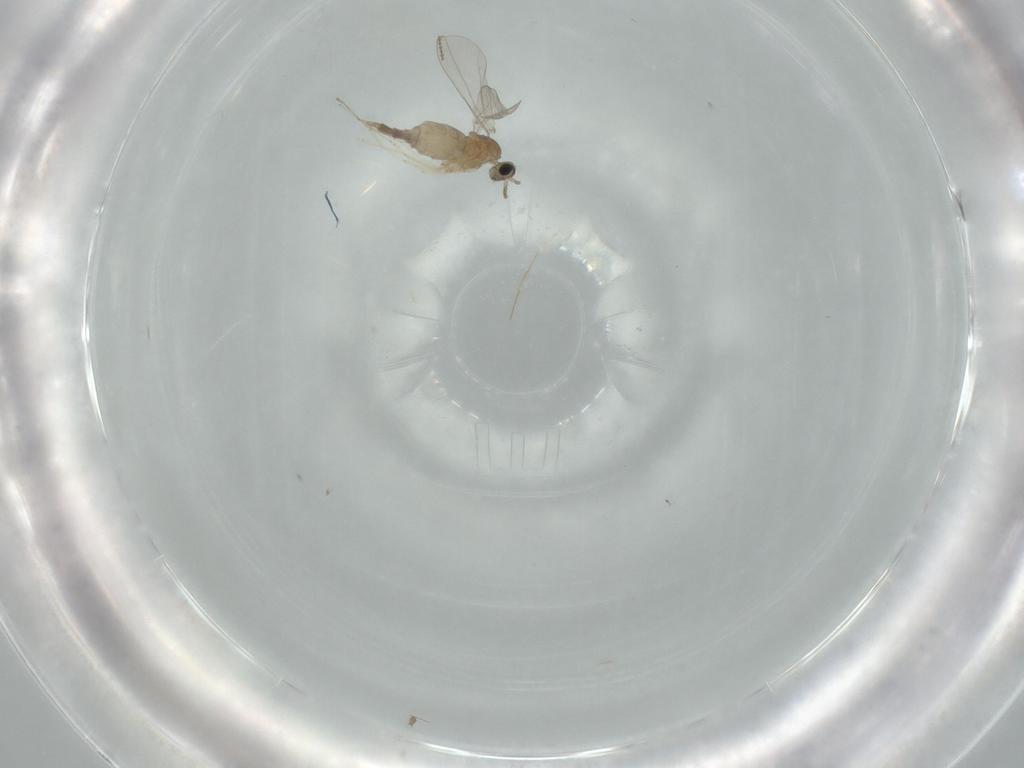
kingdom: Animalia
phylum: Arthropoda
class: Insecta
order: Diptera
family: Cecidomyiidae
